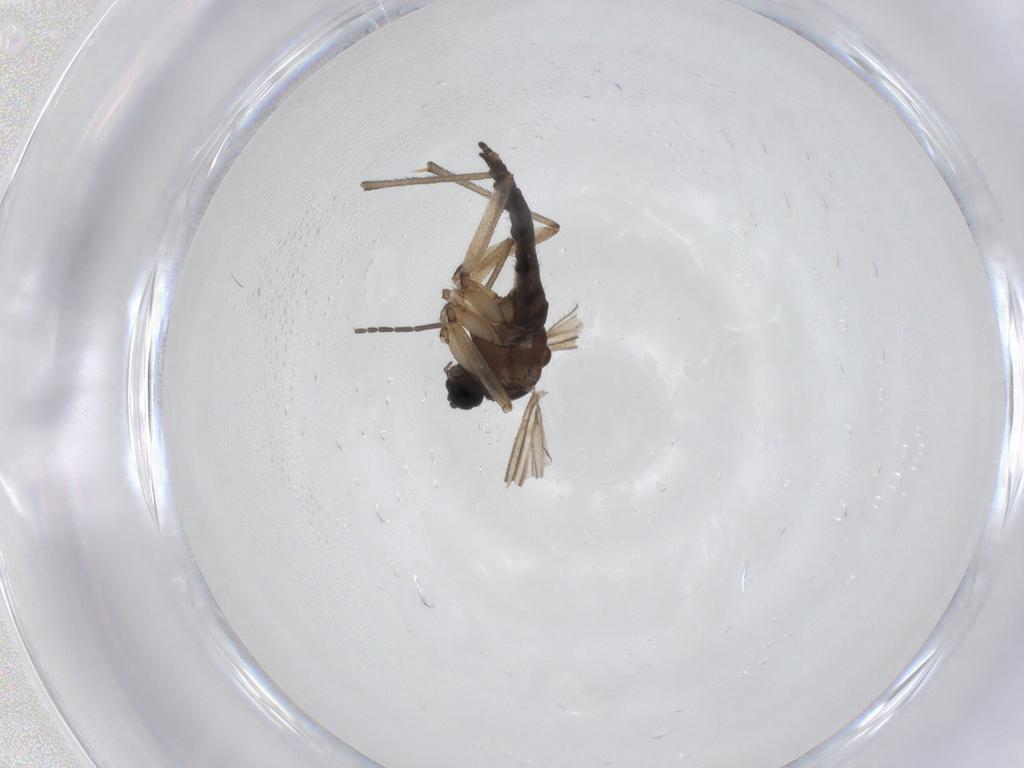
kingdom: Animalia
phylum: Arthropoda
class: Insecta
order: Diptera
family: Sciaridae
